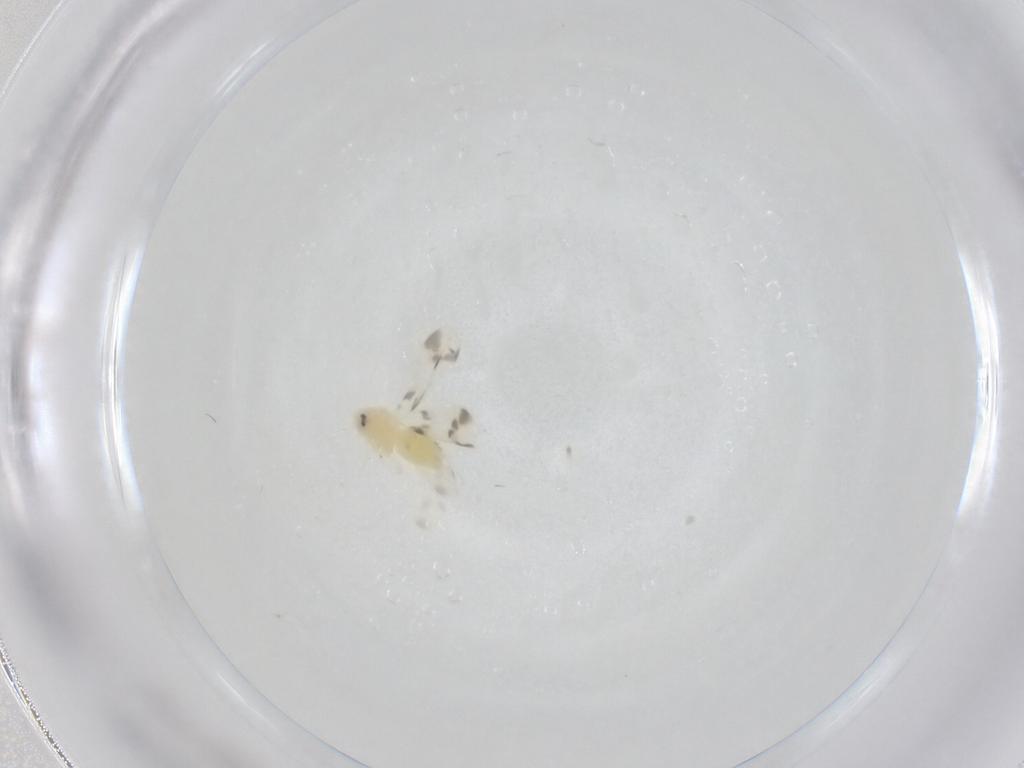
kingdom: Animalia
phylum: Arthropoda
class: Insecta
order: Hemiptera
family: Aleyrodidae
